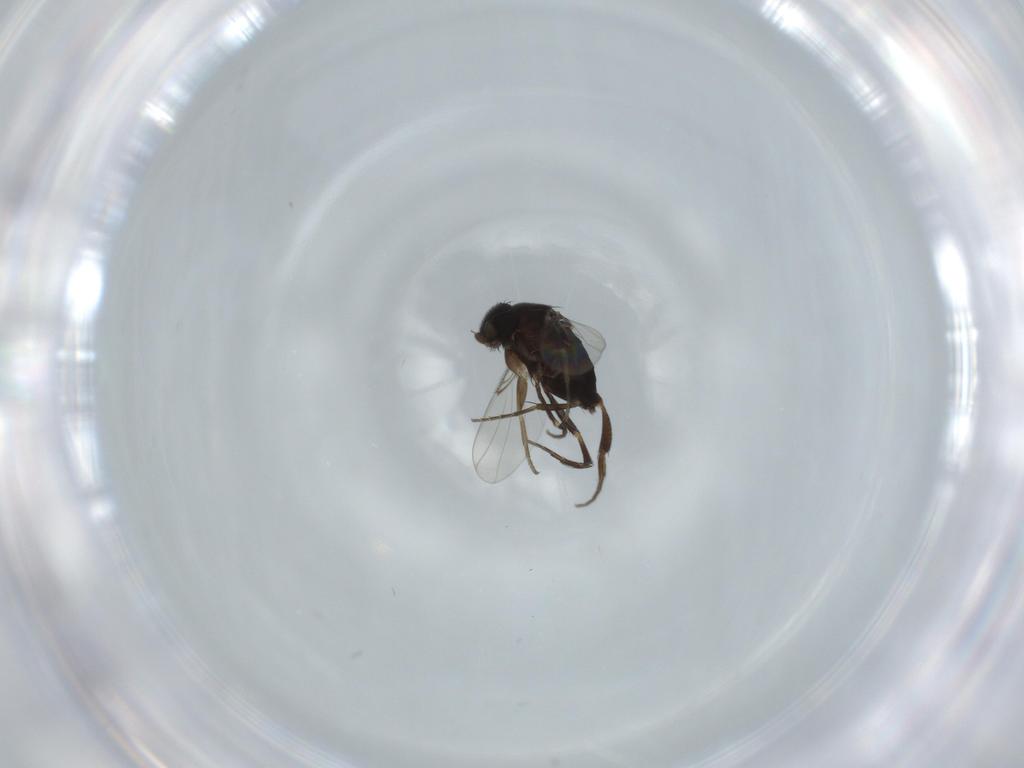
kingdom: Animalia
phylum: Arthropoda
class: Insecta
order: Diptera
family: Phoridae
